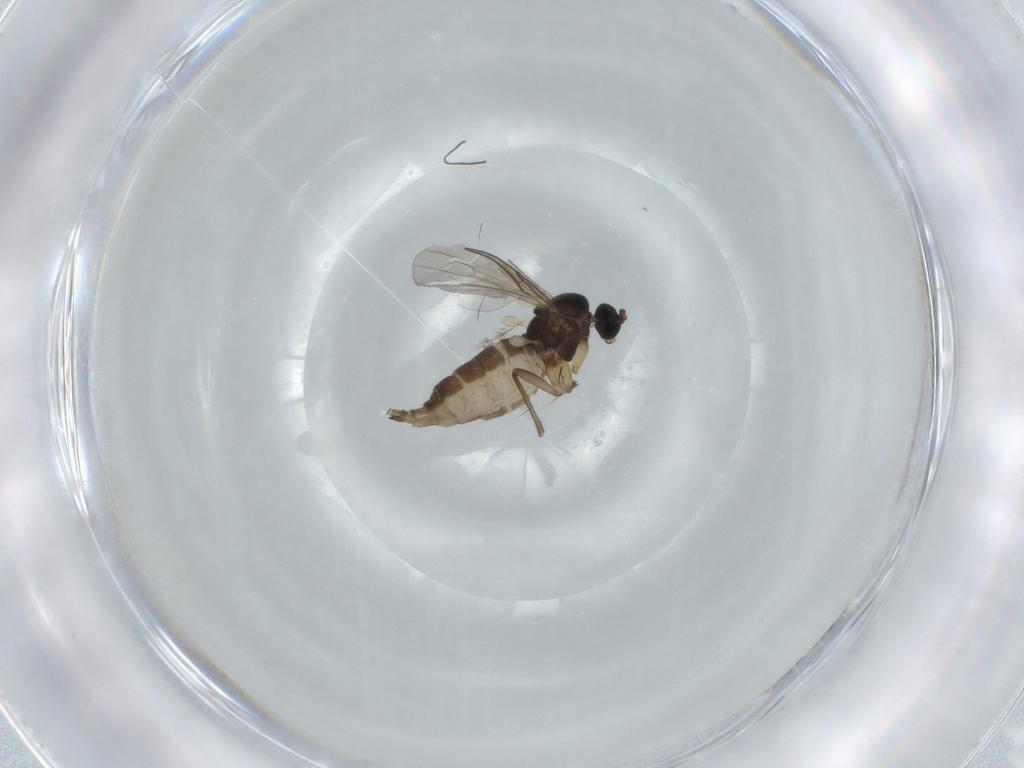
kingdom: Animalia
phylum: Arthropoda
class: Insecta
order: Diptera
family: Sciaridae
